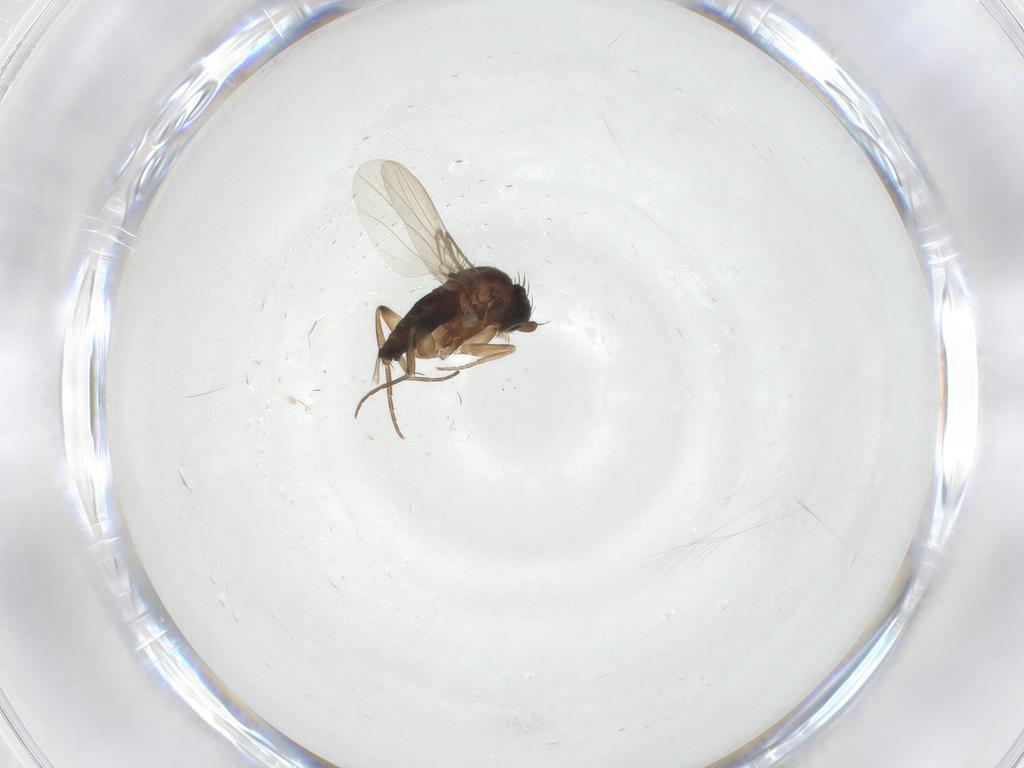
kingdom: Animalia
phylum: Arthropoda
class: Insecta
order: Diptera
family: Phoridae
